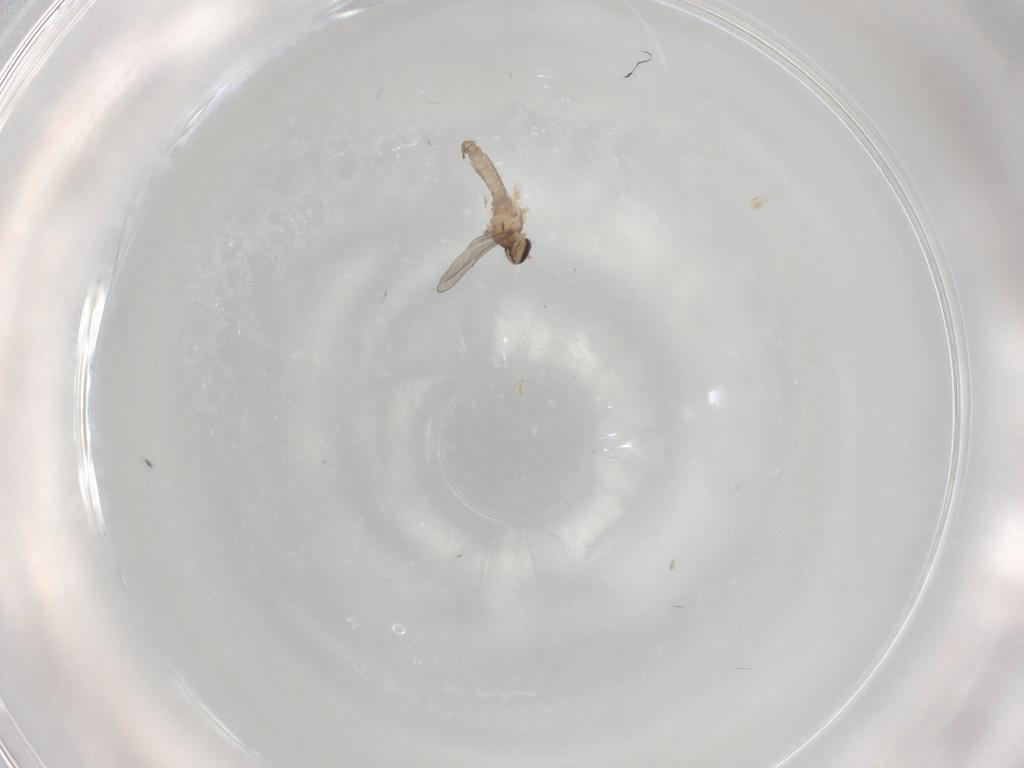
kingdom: Animalia
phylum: Arthropoda
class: Insecta
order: Diptera
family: Cecidomyiidae
